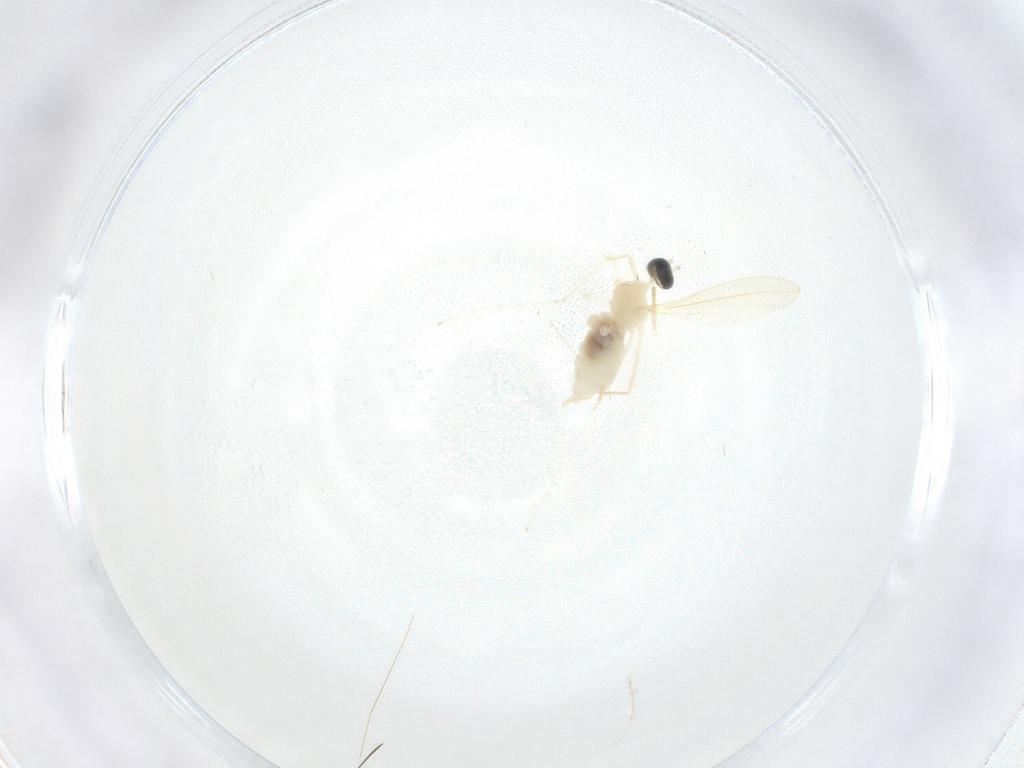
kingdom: Animalia
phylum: Arthropoda
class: Insecta
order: Diptera
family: Cecidomyiidae
